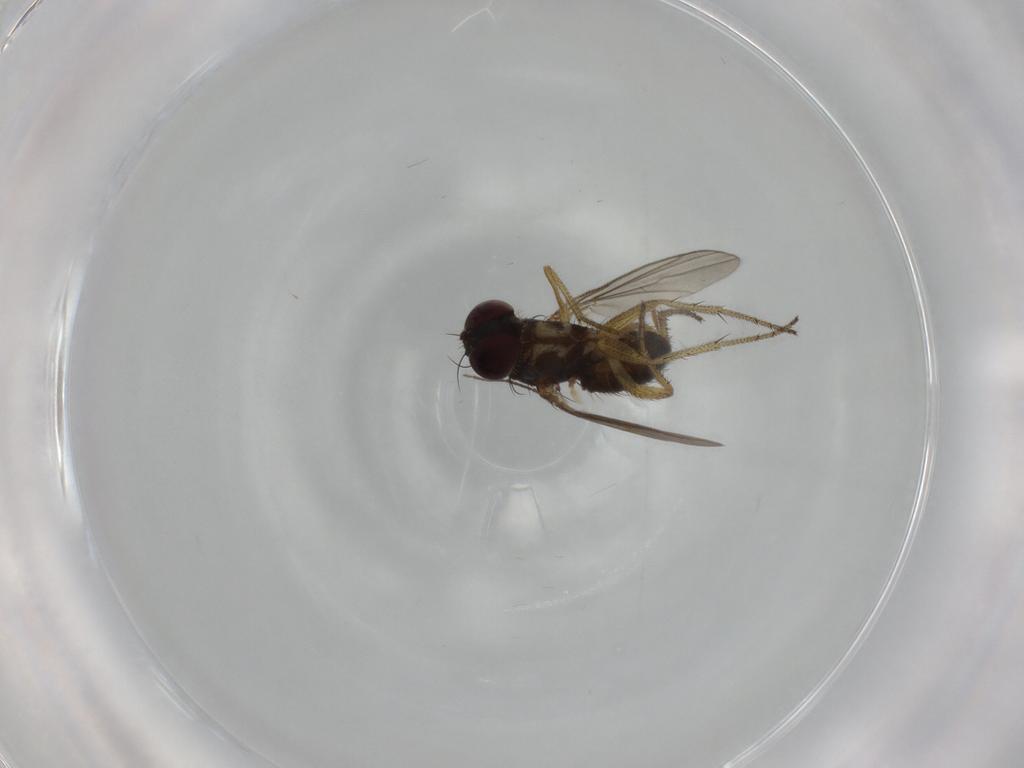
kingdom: Animalia
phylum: Arthropoda
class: Insecta
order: Diptera
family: Dolichopodidae
